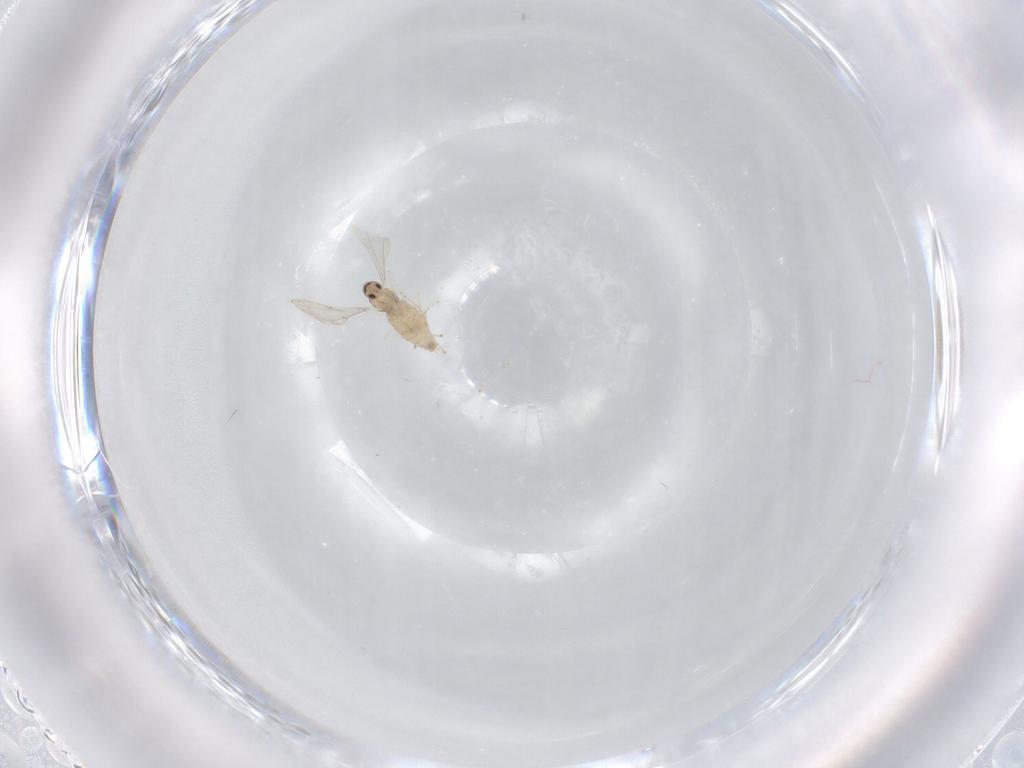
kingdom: Animalia
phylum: Arthropoda
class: Insecta
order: Diptera
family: Cecidomyiidae
